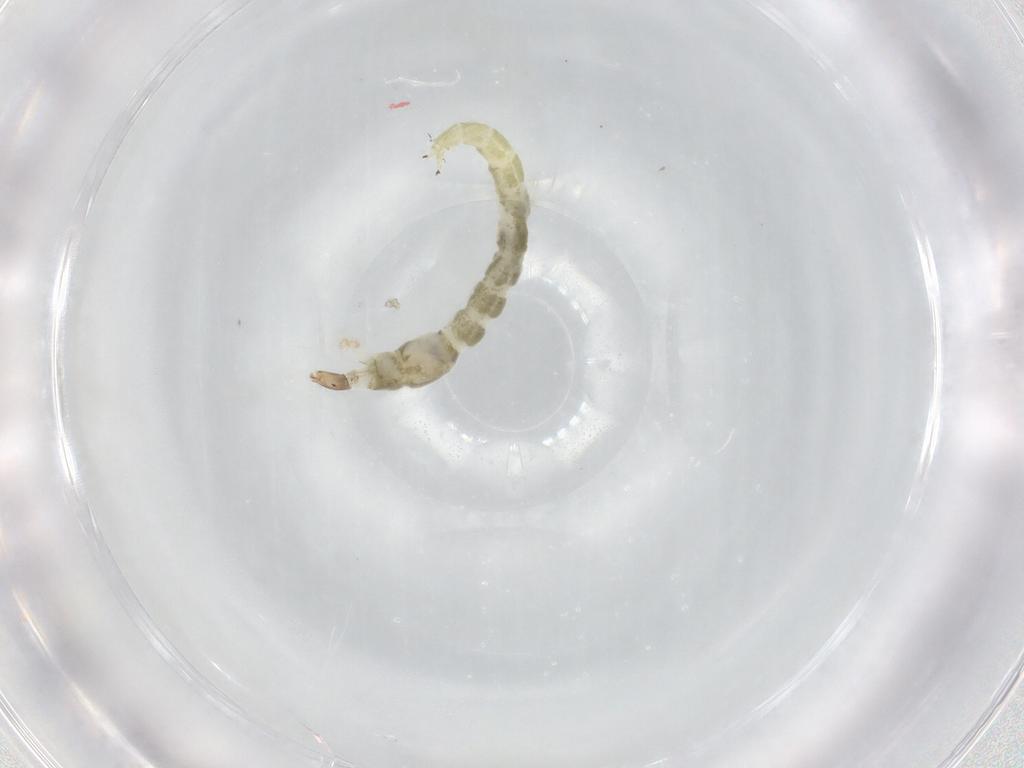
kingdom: Animalia
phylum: Arthropoda
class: Insecta
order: Diptera
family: Chironomidae
